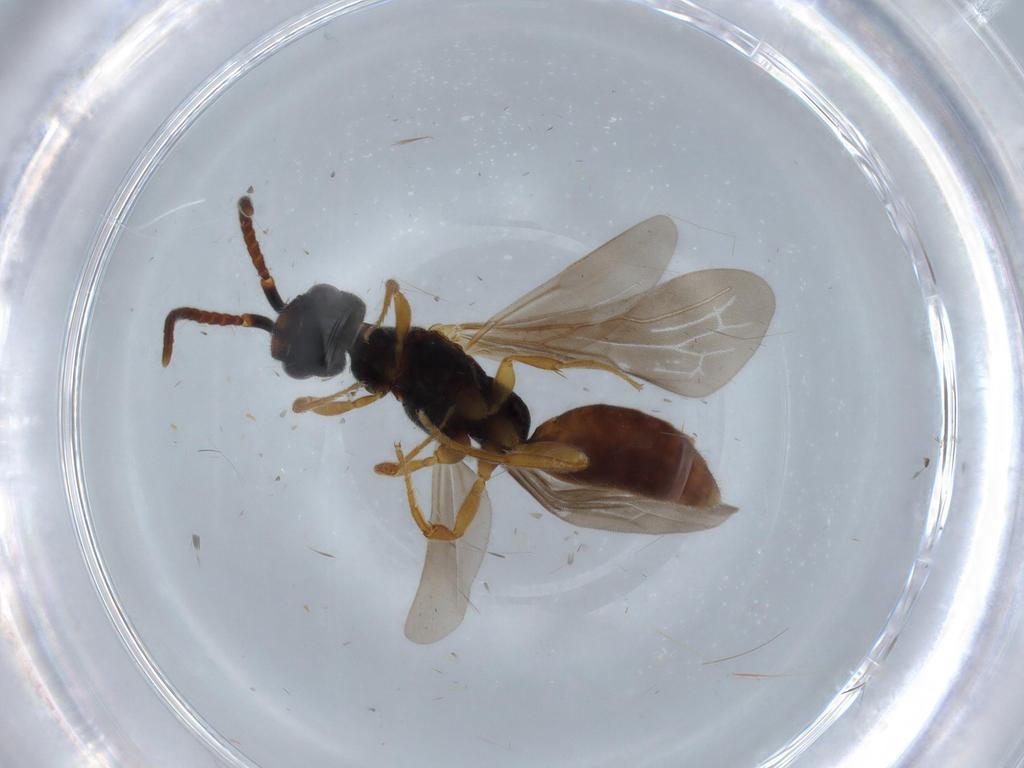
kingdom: Animalia
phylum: Arthropoda
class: Insecta
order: Hymenoptera
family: Bethylidae
